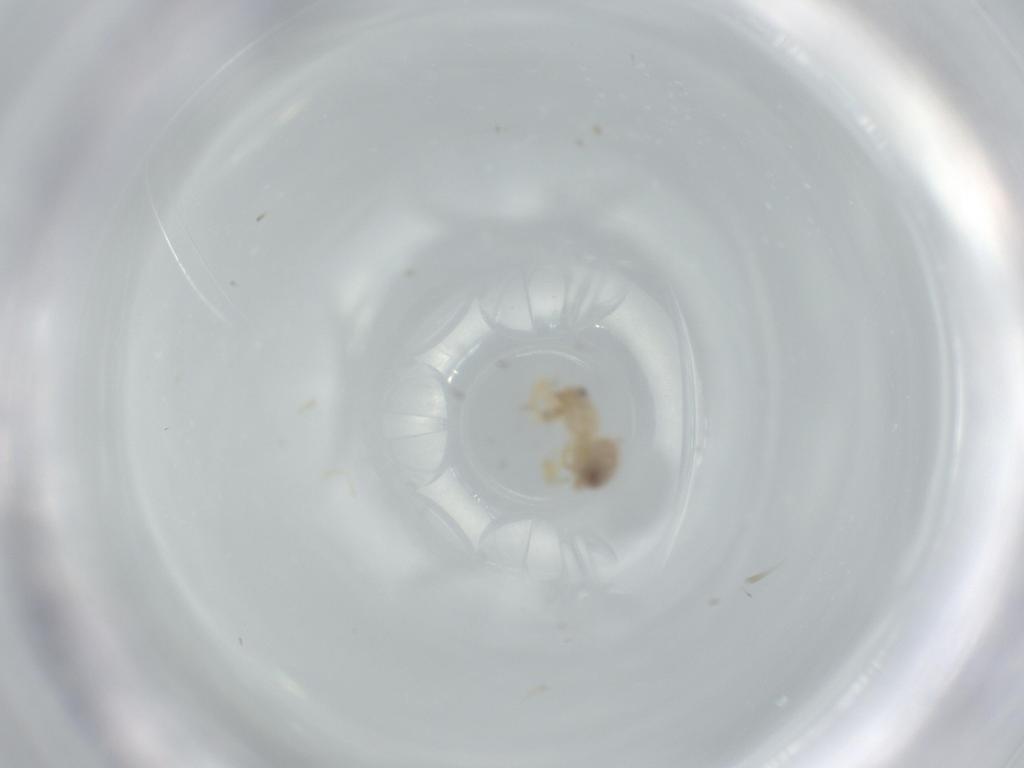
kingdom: Animalia
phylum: Arthropoda
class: Arachnida
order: Araneae
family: Oonopidae
